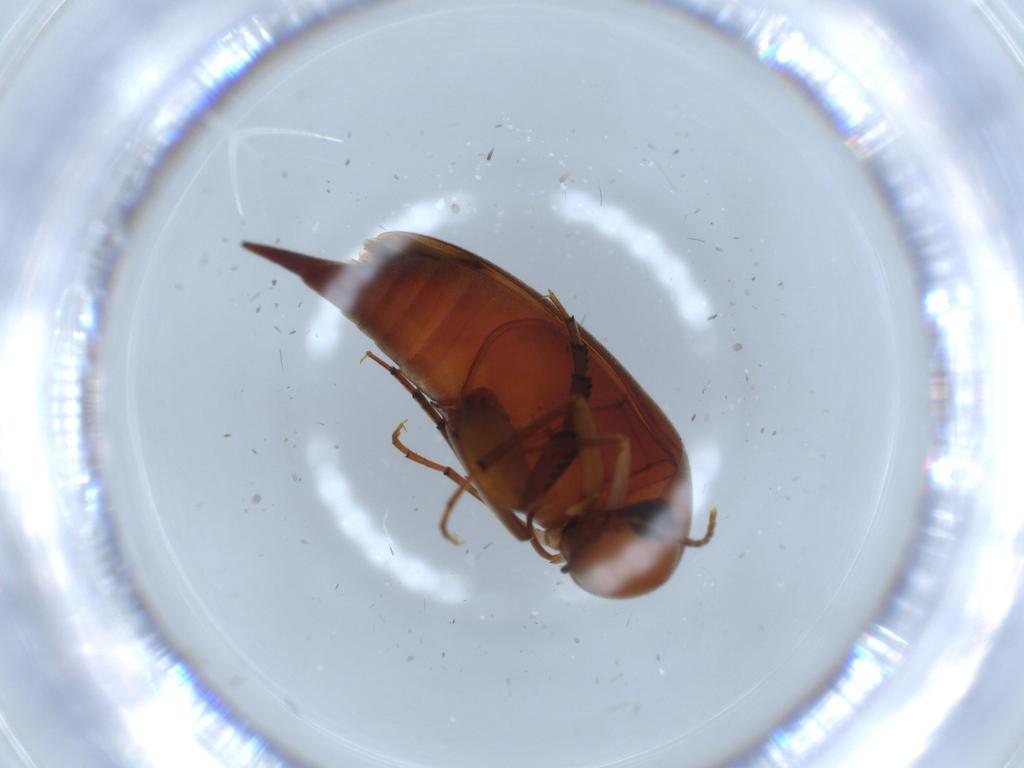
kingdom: Animalia
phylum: Arthropoda
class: Insecta
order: Coleoptera
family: Mordellidae
